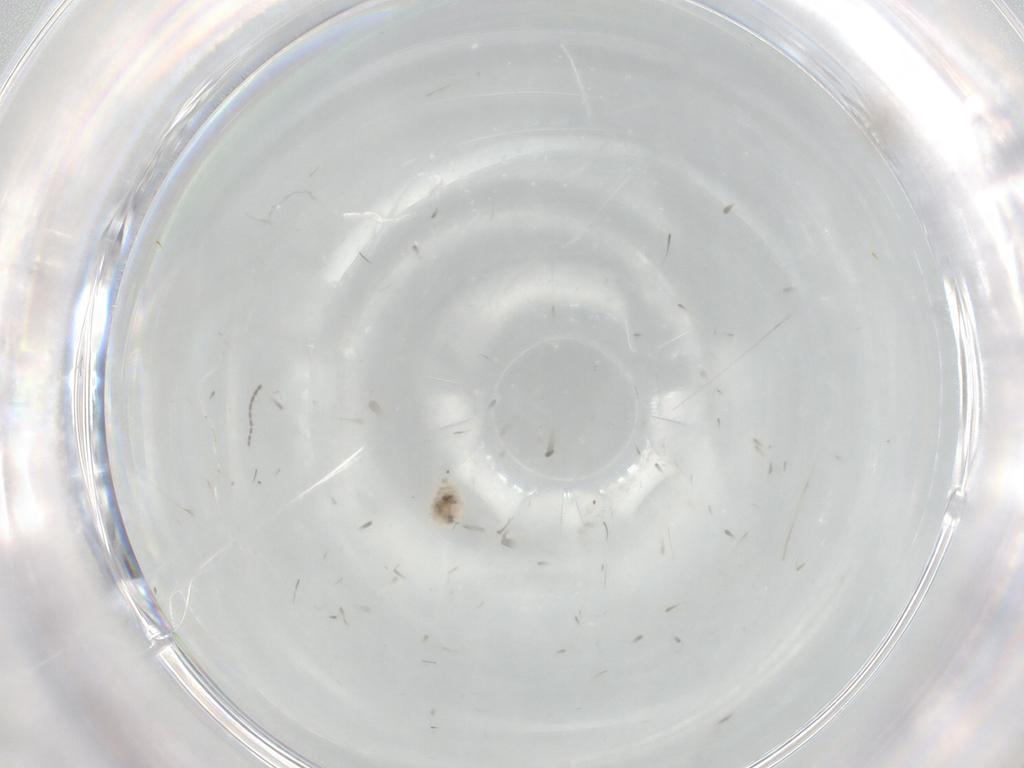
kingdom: Animalia
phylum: Arthropoda
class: Insecta
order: Diptera
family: Cecidomyiidae
